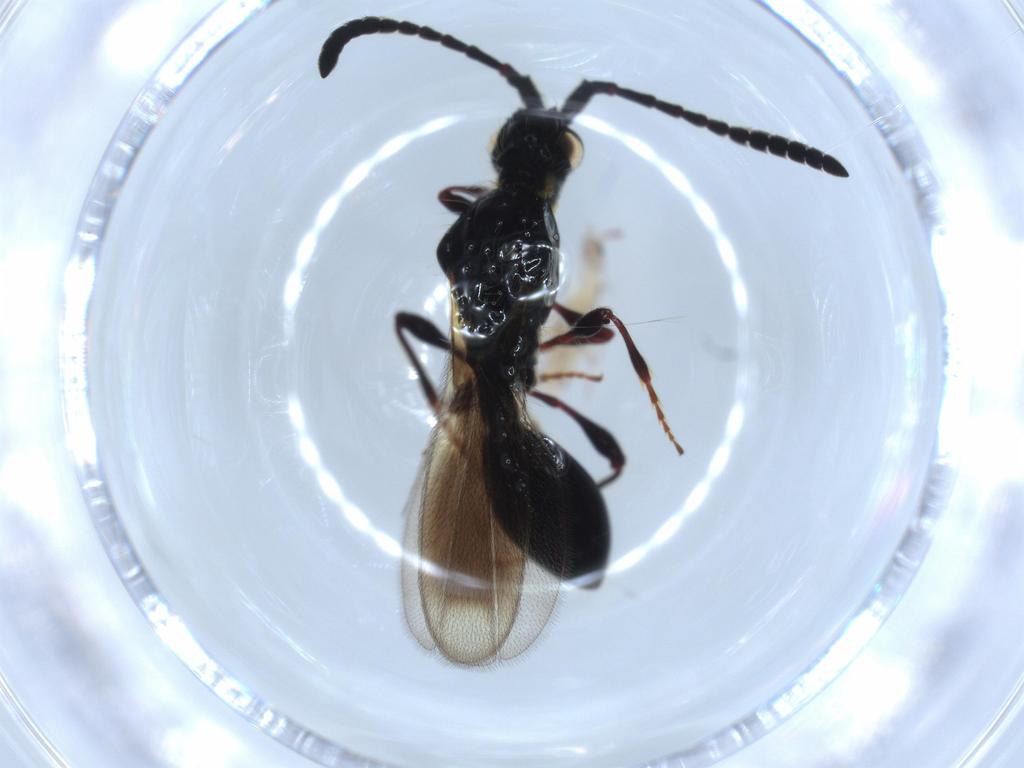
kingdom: Animalia
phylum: Arthropoda
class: Collembola
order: Entomobryomorpha
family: Entomobryidae
